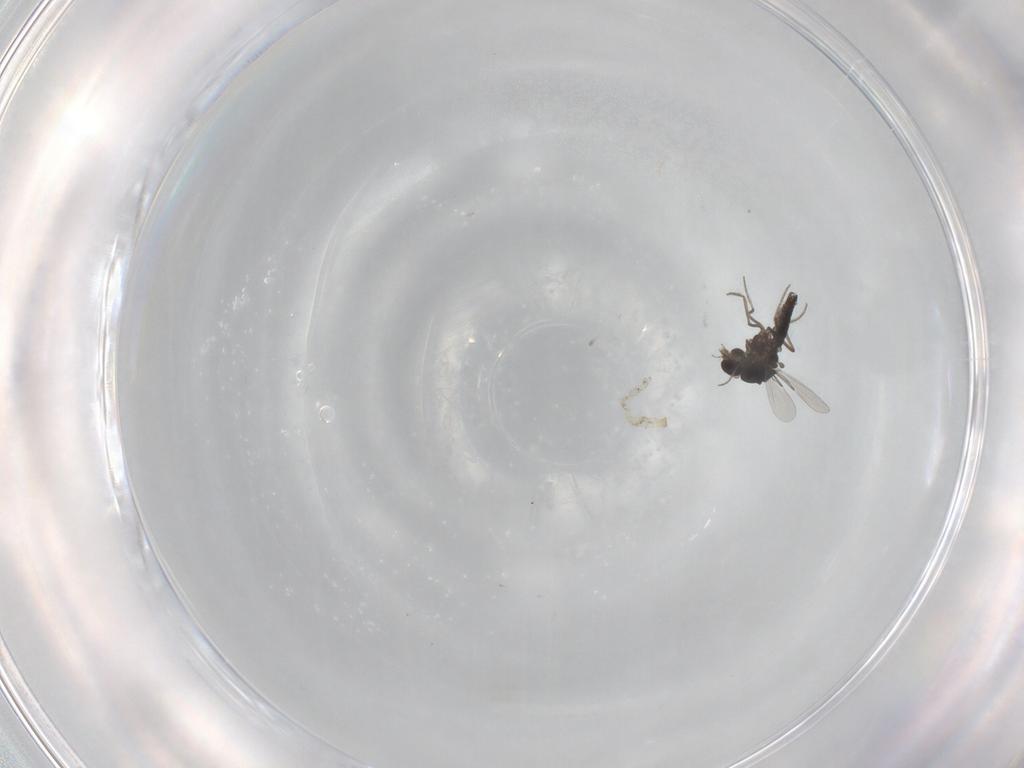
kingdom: Animalia
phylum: Arthropoda
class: Insecta
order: Diptera
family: Ceratopogonidae
